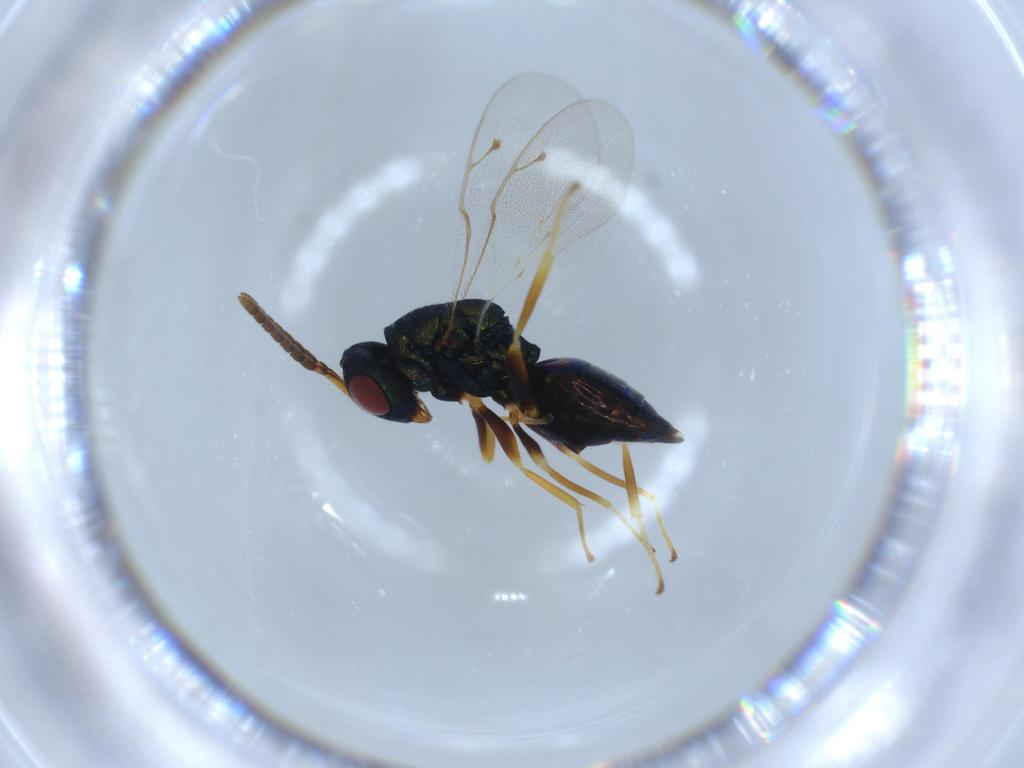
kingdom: Animalia
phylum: Arthropoda
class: Insecta
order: Hymenoptera
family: Pteromalidae
